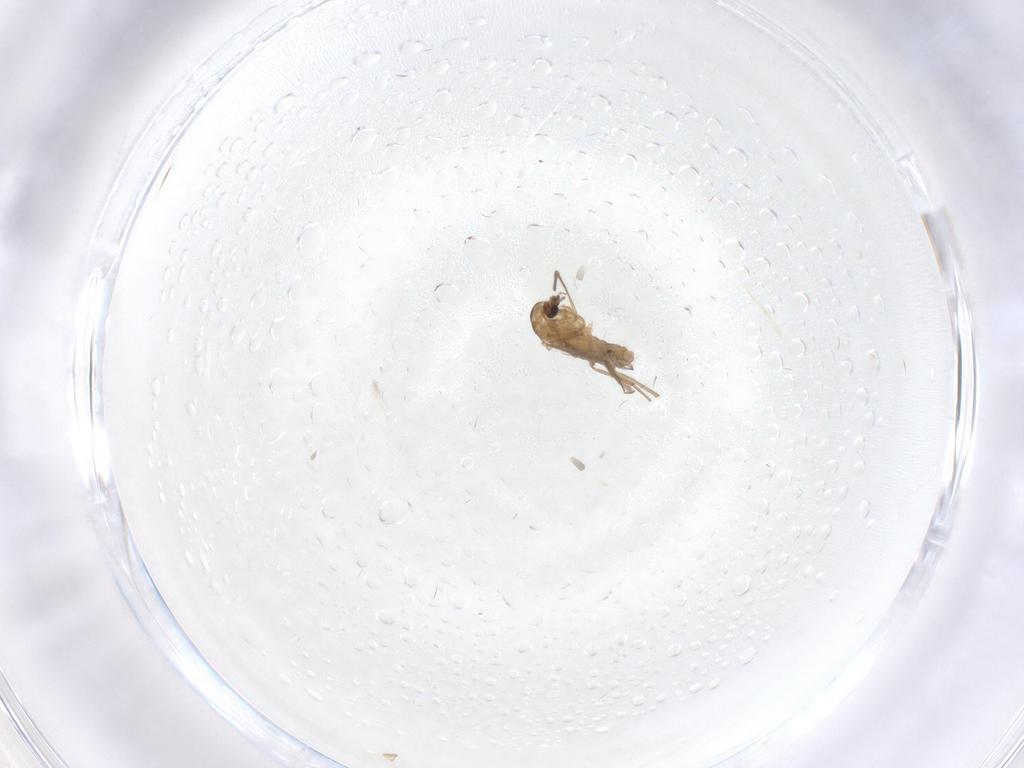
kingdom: Animalia
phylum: Arthropoda
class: Insecta
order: Diptera
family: Chironomidae
